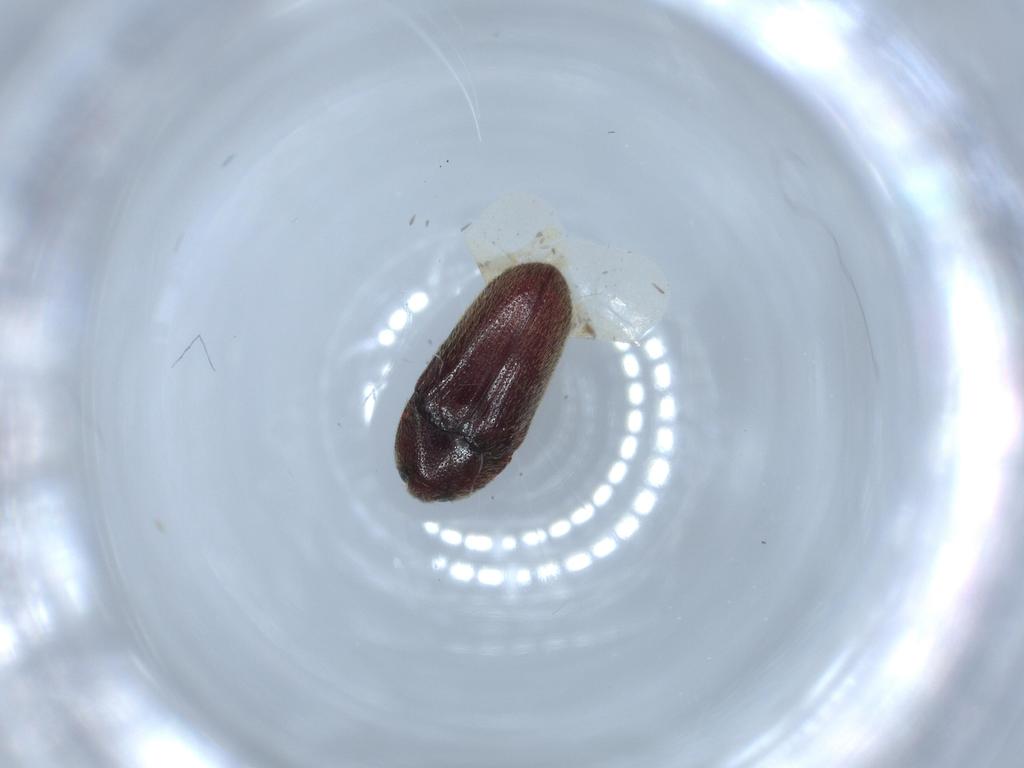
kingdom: Animalia
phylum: Arthropoda
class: Insecta
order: Coleoptera
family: Throscidae
